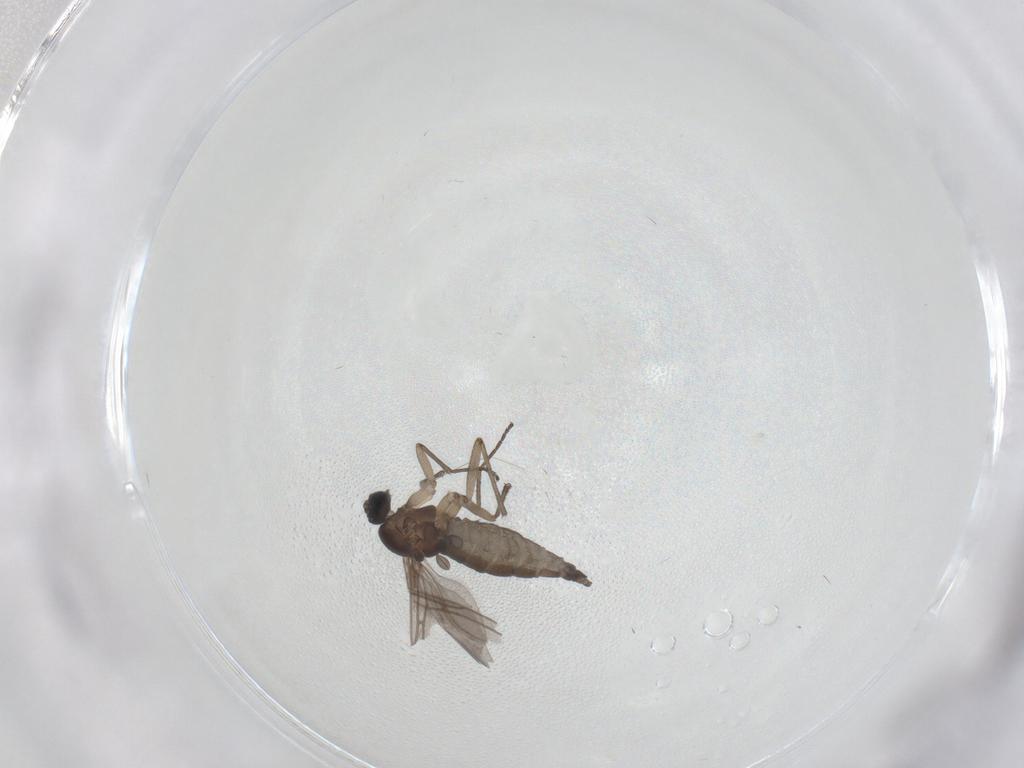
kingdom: Animalia
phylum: Arthropoda
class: Insecta
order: Diptera
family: Sciaridae
